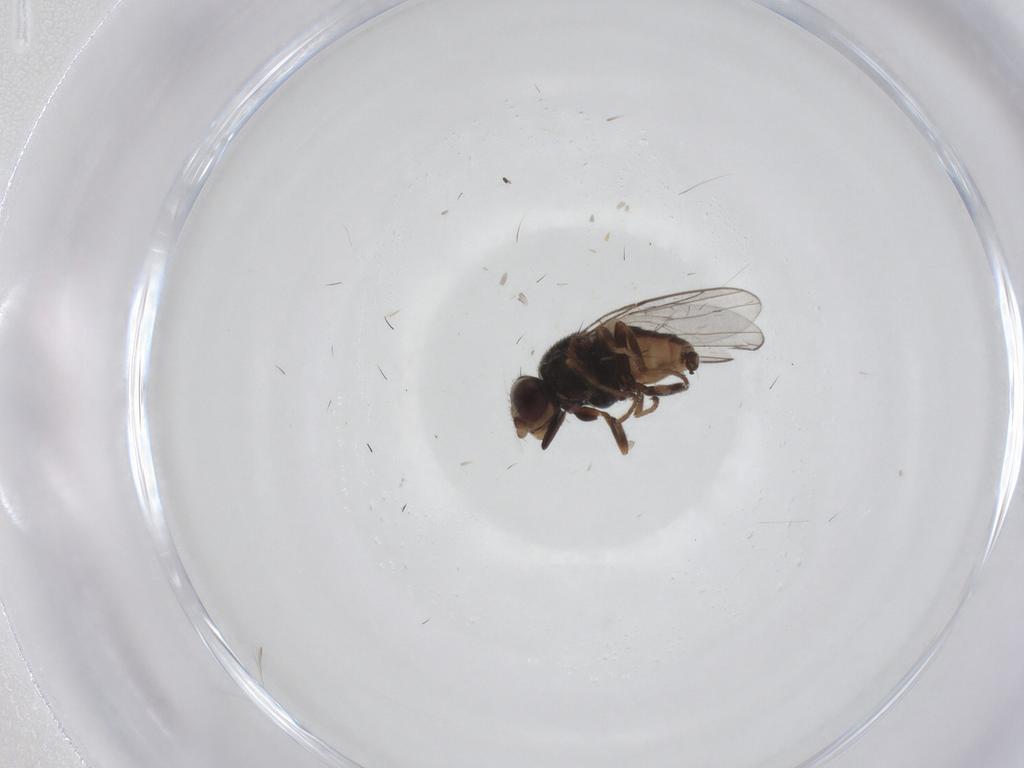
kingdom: Animalia
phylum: Arthropoda
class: Insecta
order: Diptera
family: Chloropidae
